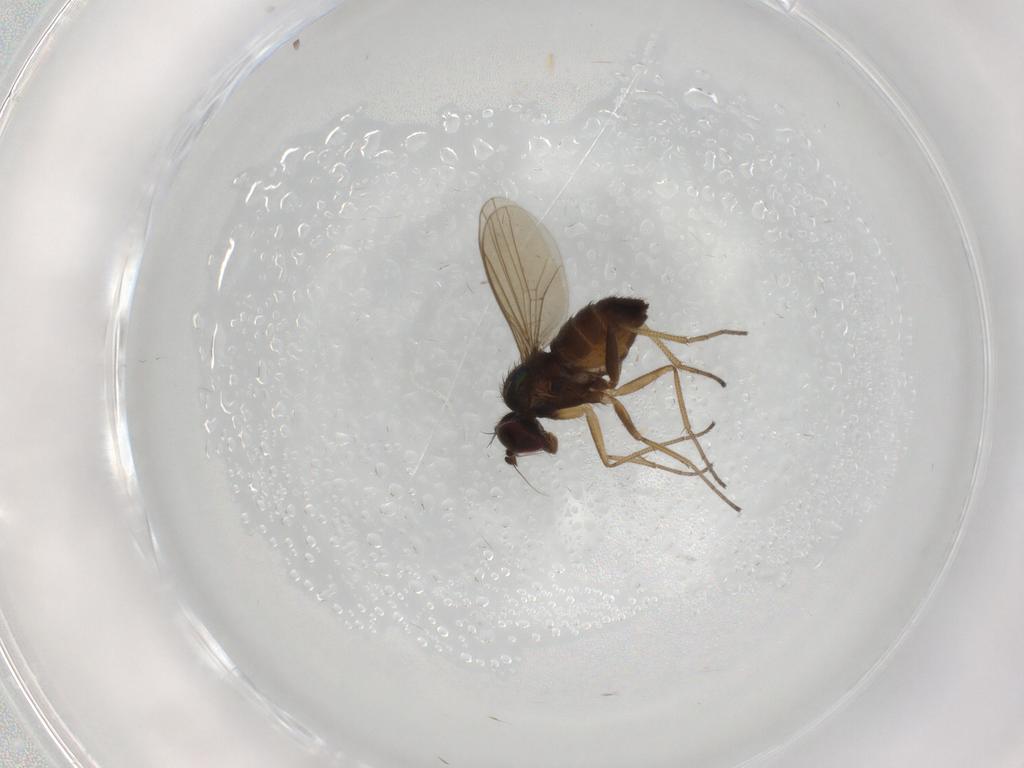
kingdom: Animalia
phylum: Arthropoda
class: Insecta
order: Diptera
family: Dolichopodidae
